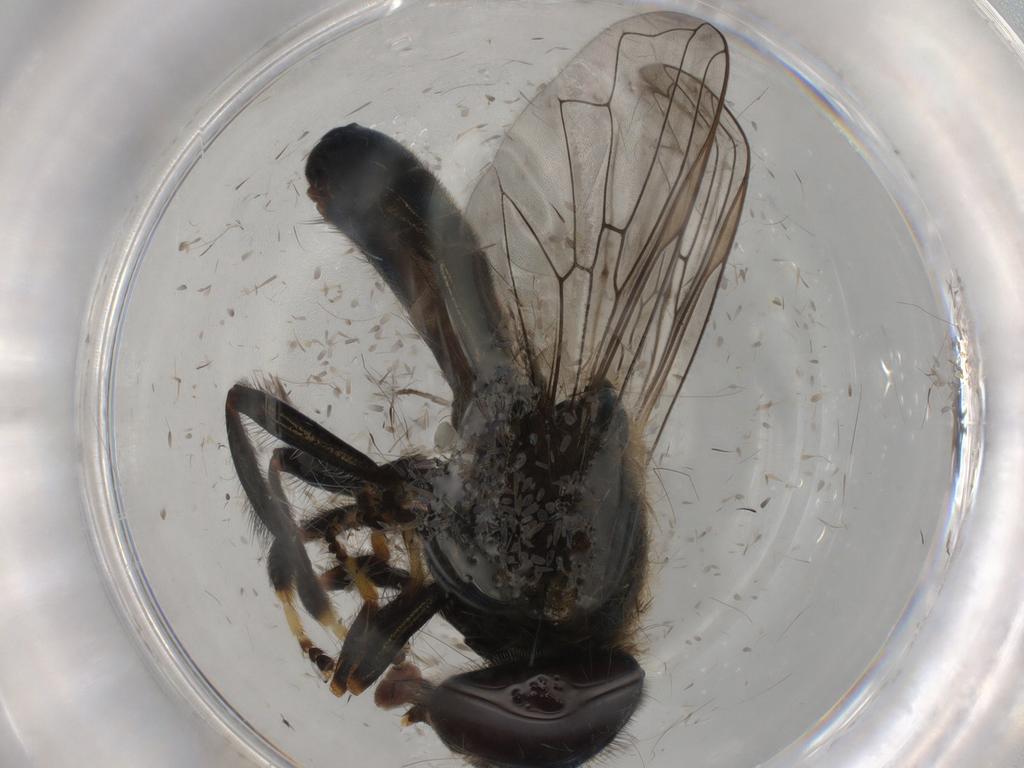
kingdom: Animalia
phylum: Arthropoda
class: Insecta
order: Diptera
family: Syrphidae
